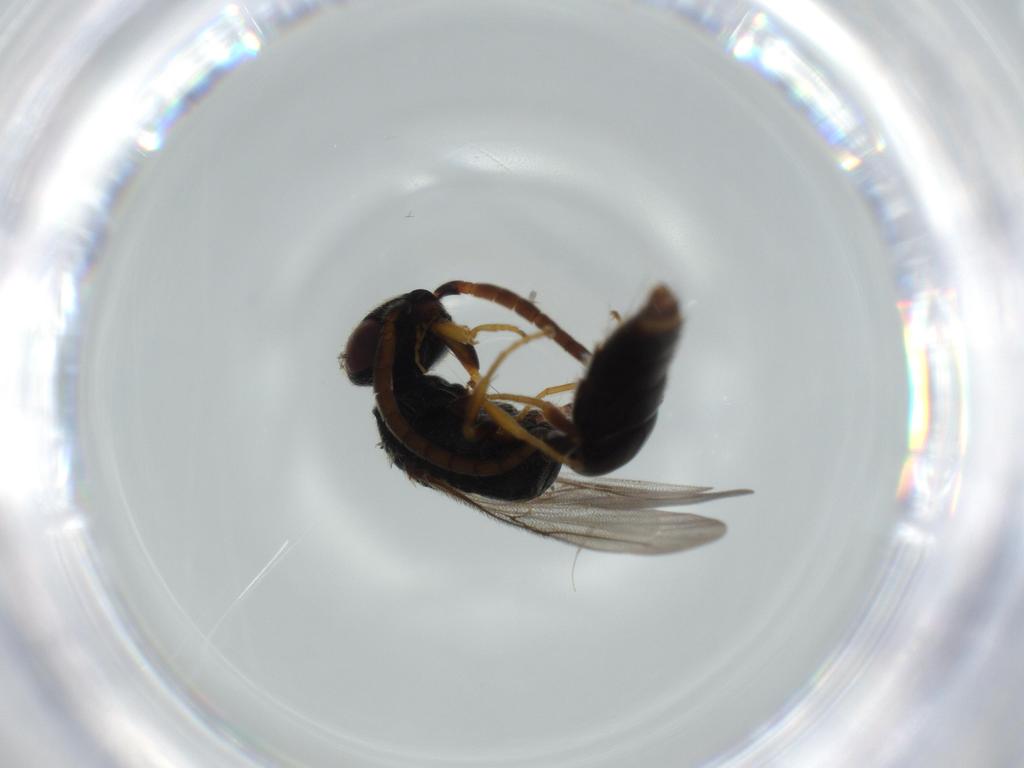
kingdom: Animalia
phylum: Arthropoda
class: Insecta
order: Hymenoptera
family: Bethylidae
